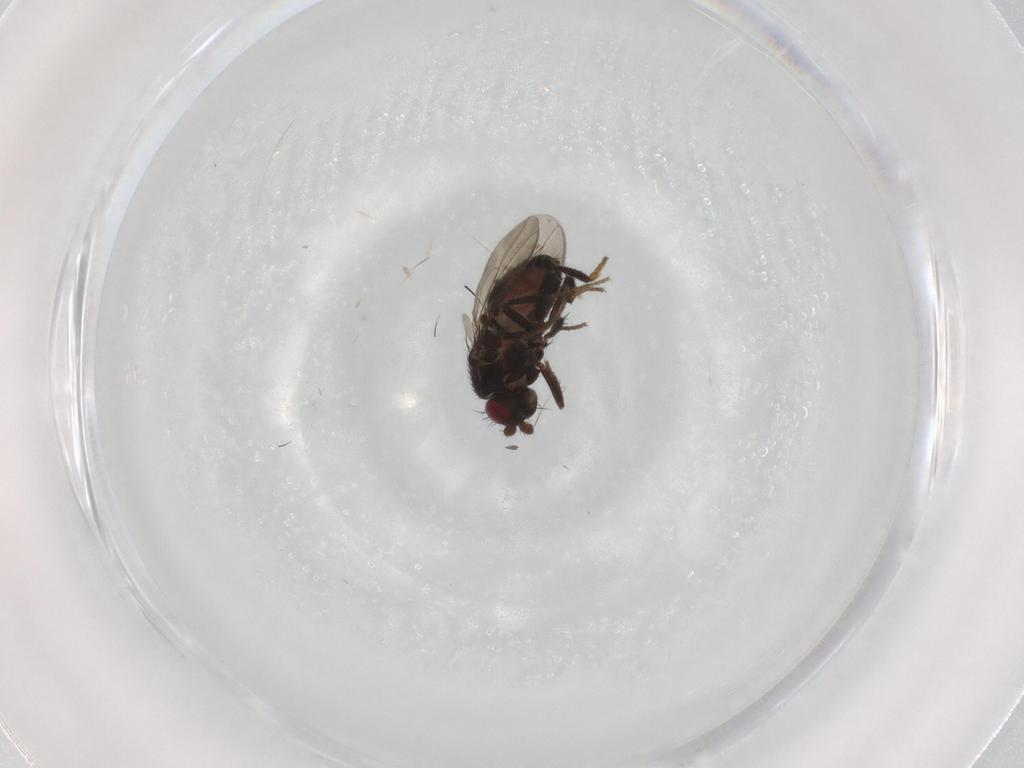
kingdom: Animalia
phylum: Arthropoda
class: Insecta
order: Diptera
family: Sphaeroceridae
